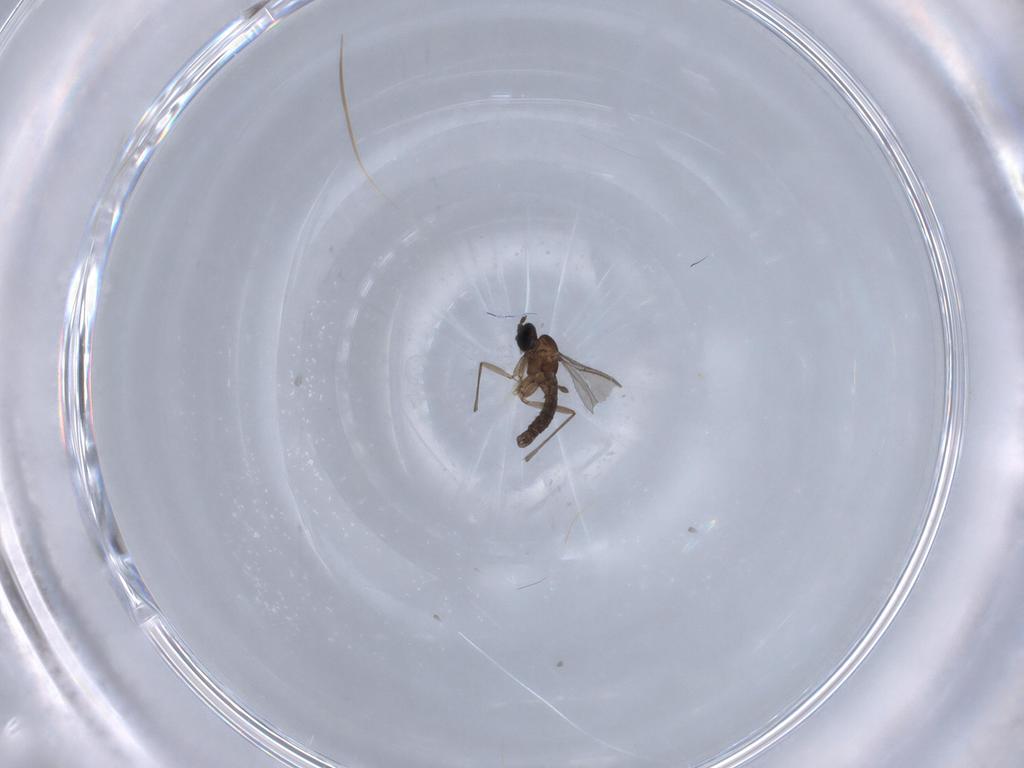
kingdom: Animalia
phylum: Arthropoda
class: Insecta
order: Diptera
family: Sciaridae
